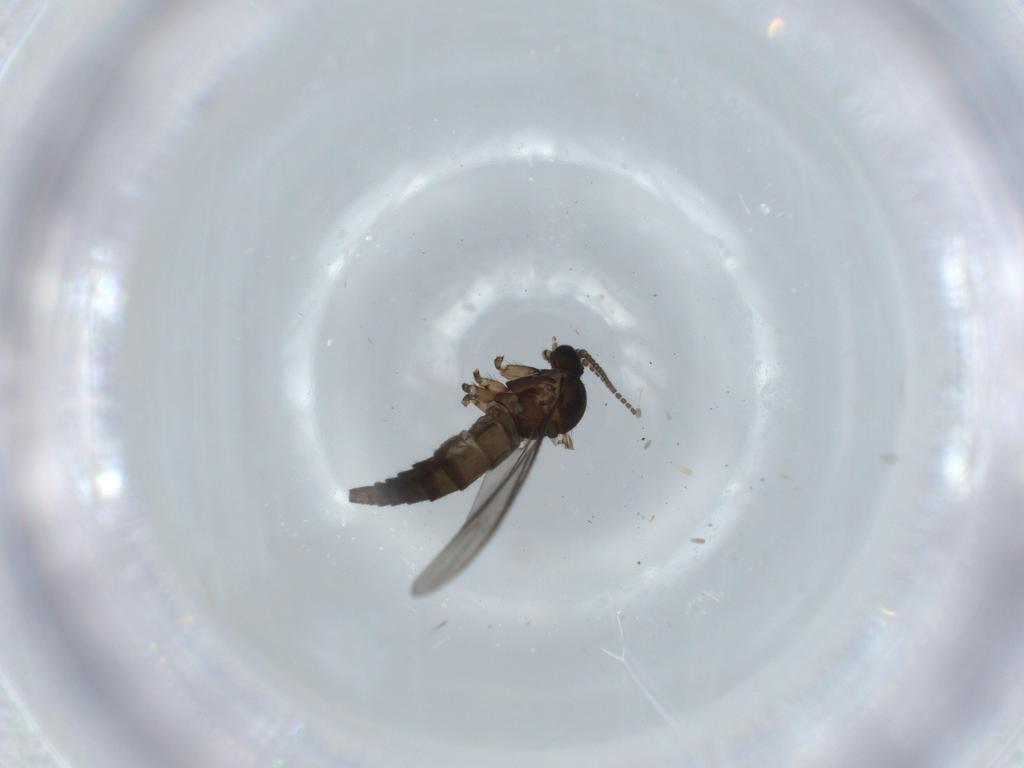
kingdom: Animalia
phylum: Arthropoda
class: Insecta
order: Diptera
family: Sciaridae
